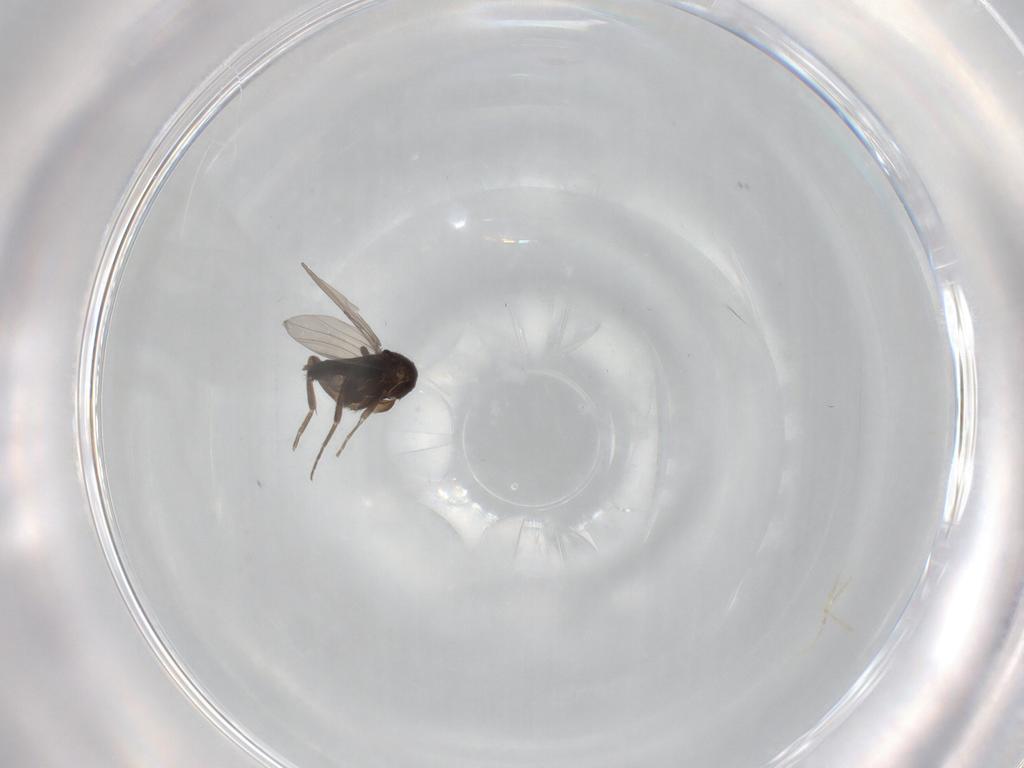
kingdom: Animalia
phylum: Arthropoda
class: Insecta
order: Diptera
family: Phoridae
